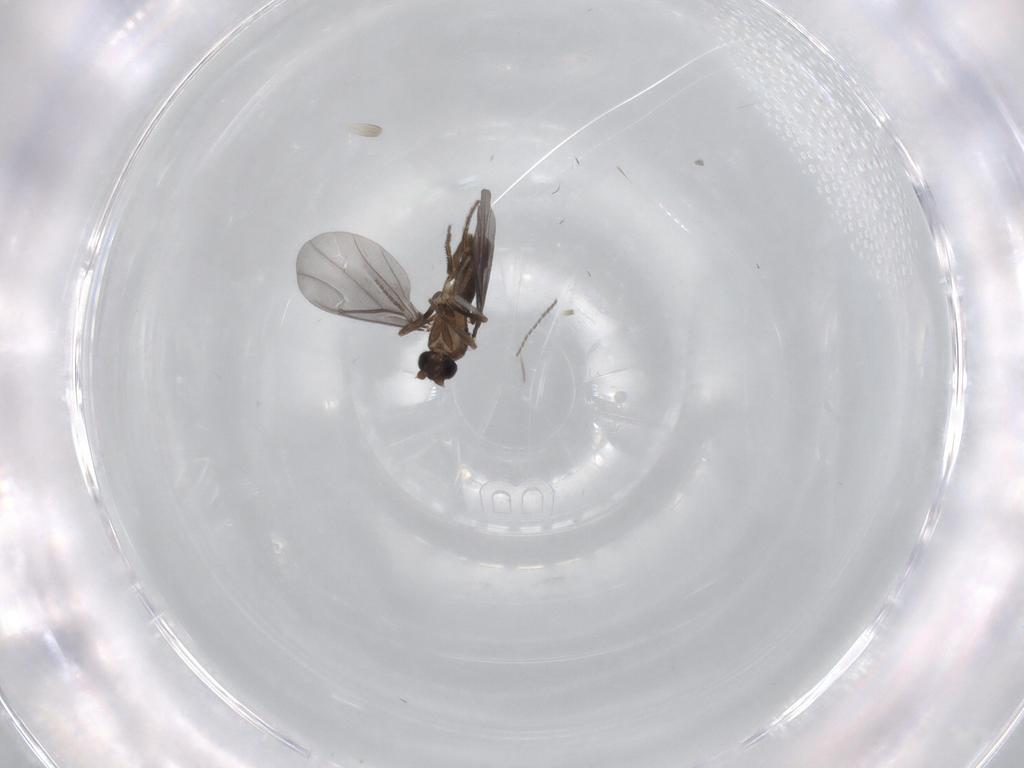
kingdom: Animalia
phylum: Arthropoda
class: Insecta
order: Diptera
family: Phoridae
